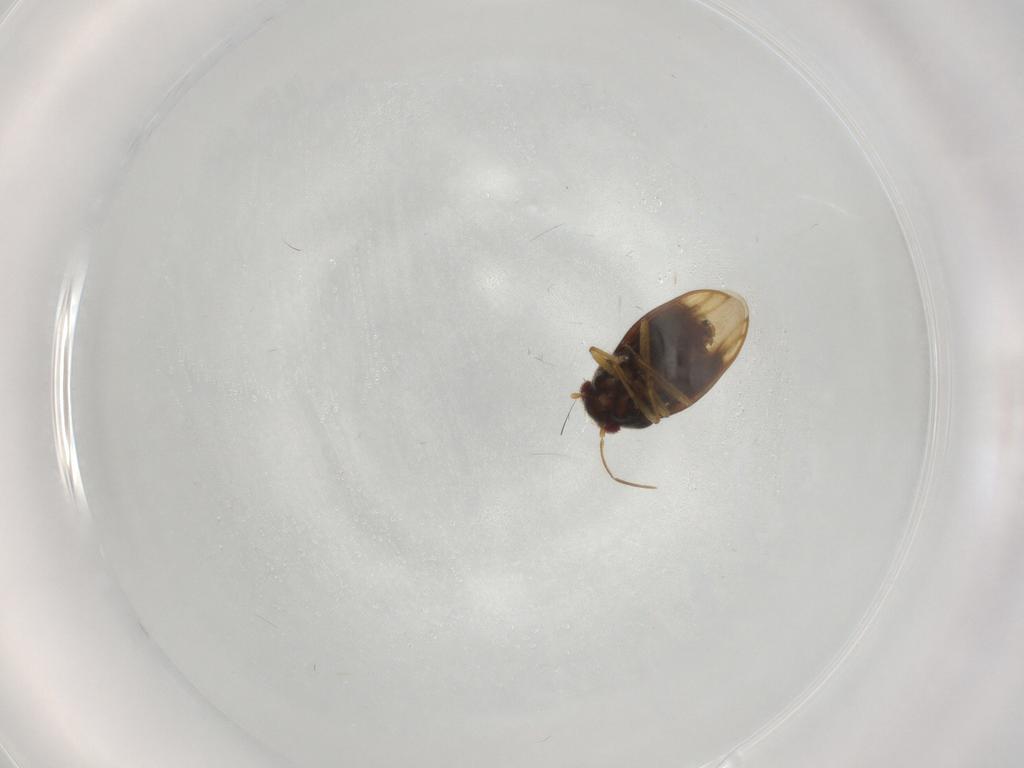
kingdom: Animalia
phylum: Arthropoda
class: Insecta
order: Hemiptera
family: Schizopteridae
